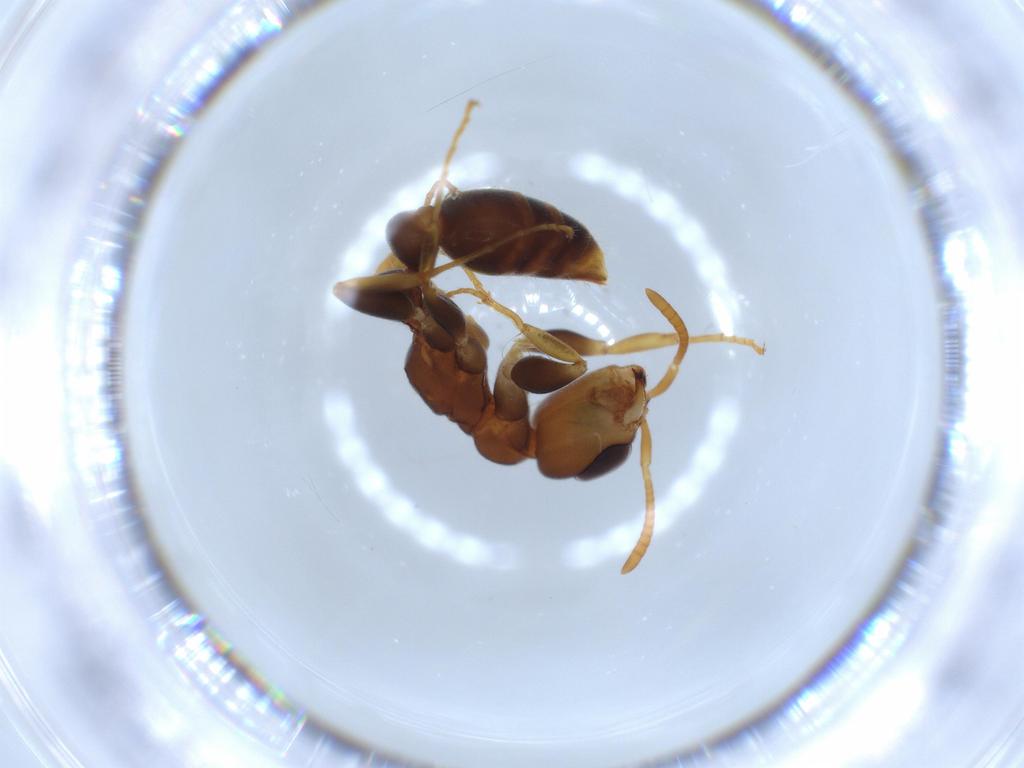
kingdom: Animalia
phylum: Arthropoda
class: Insecta
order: Hymenoptera
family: Formicidae
